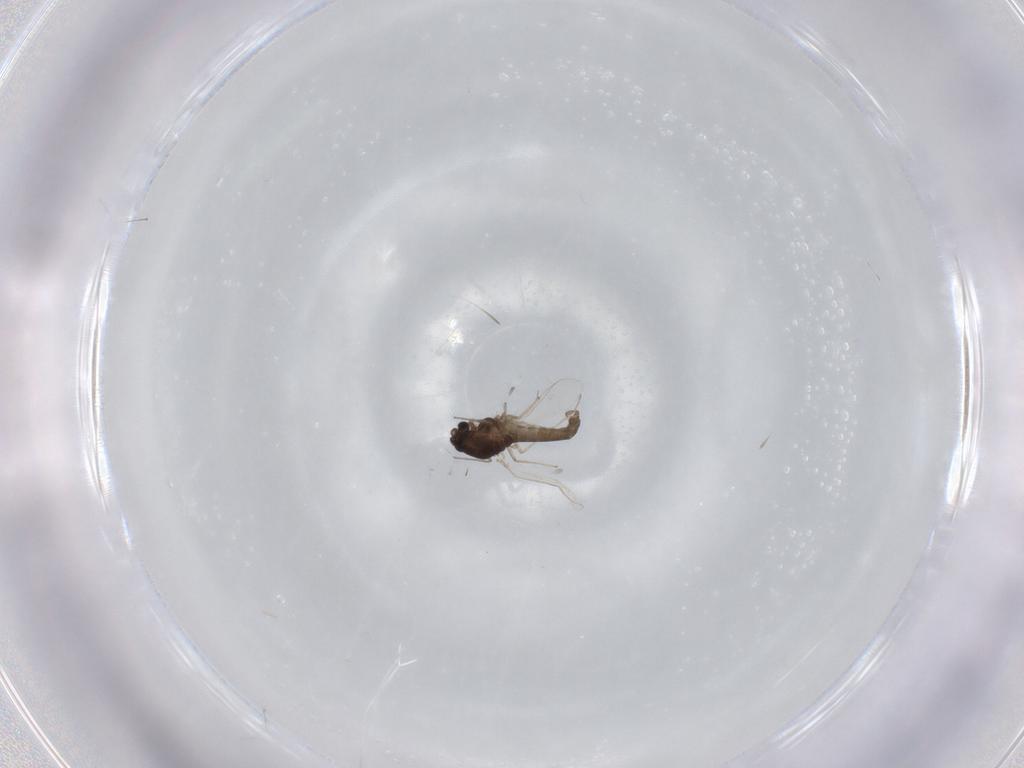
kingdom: Animalia
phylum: Arthropoda
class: Insecta
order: Diptera
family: Chironomidae
